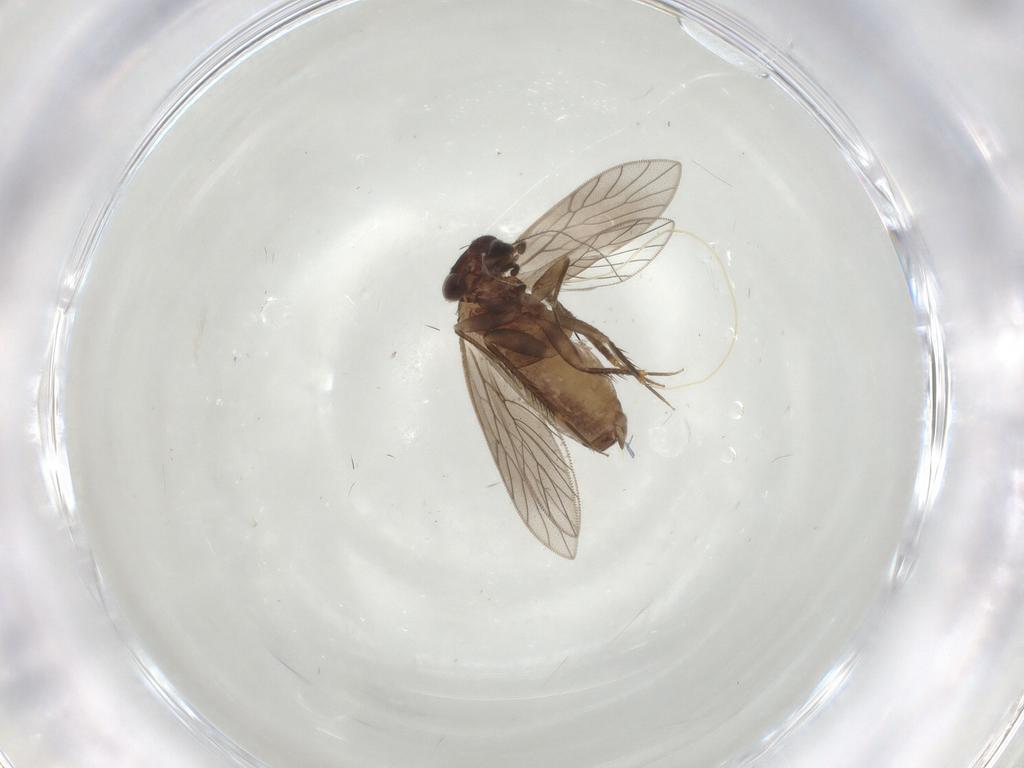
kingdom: Animalia
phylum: Arthropoda
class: Insecta
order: Psocodea
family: Lepidopsocidae
